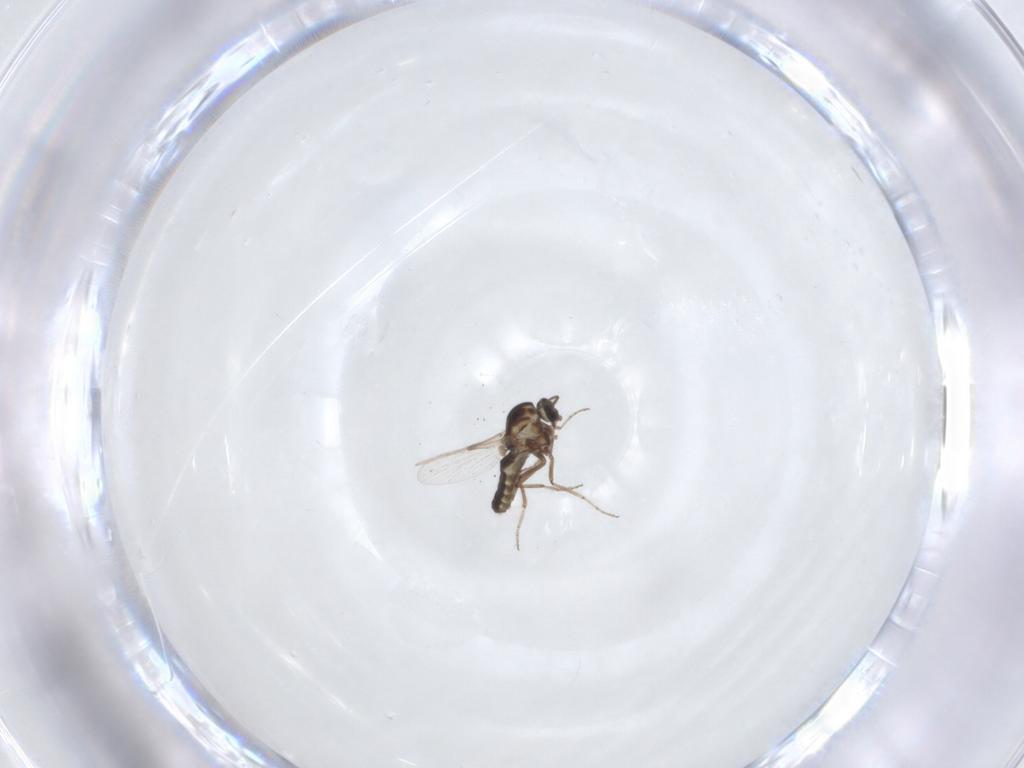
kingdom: Animalia
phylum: Arthropoda
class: Insecta
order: Diptera
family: Ceratopogonidae
